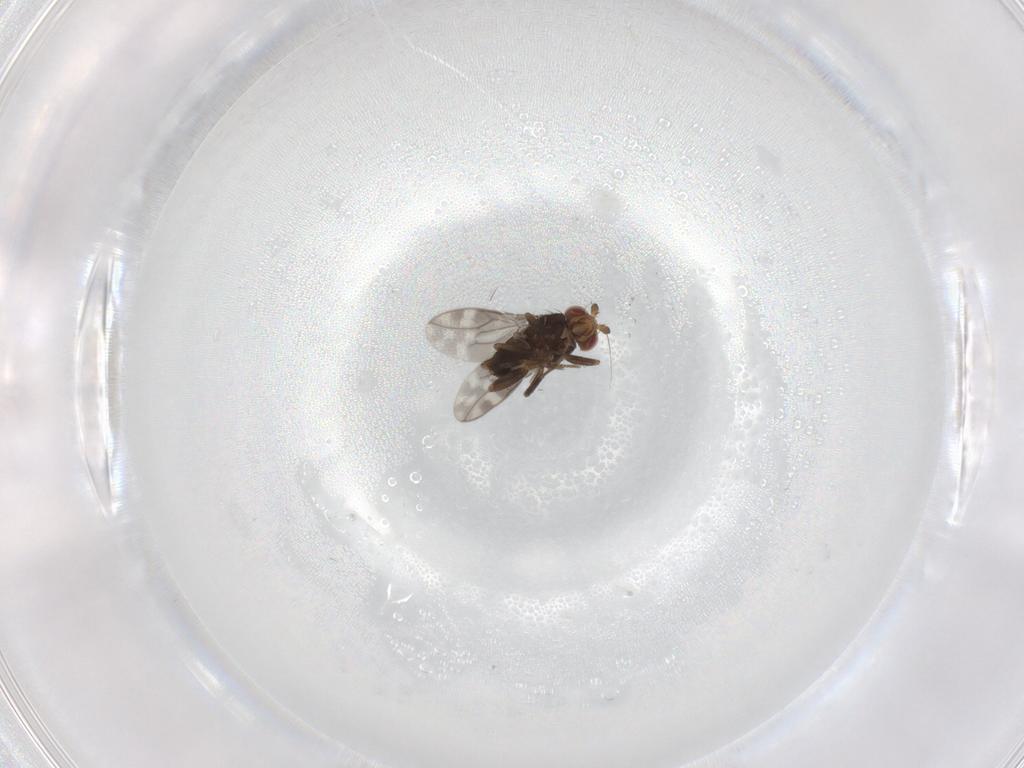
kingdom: Animalia
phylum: Arthropoda
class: Insecta
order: Diptera
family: Sphaeroceridae
